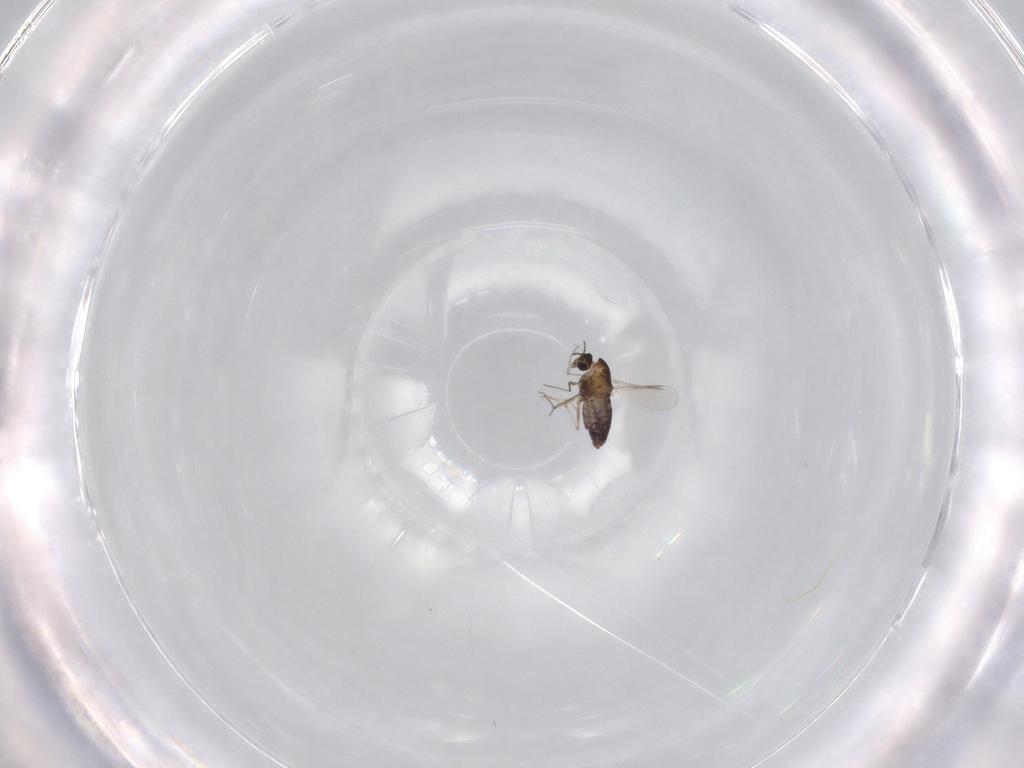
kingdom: Animalia
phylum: Arthropoda
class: Insecta
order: Diptera
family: Chironomidae
